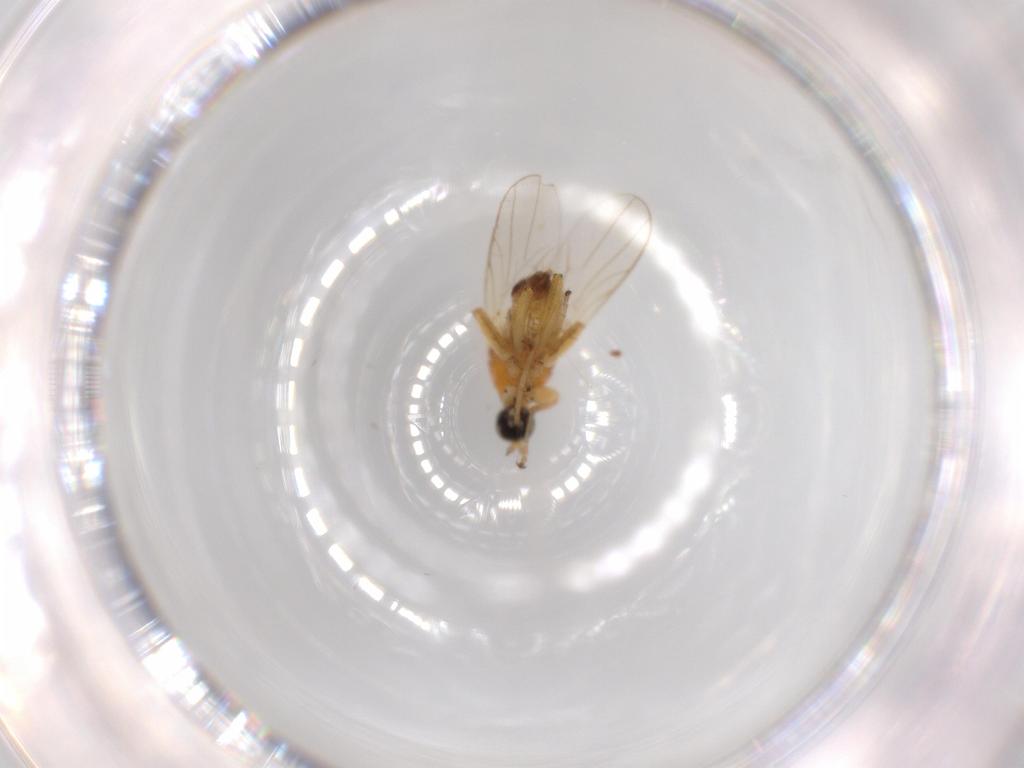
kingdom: Animalia
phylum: Arthropoda
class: Insecta
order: Diptera
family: Hybotidae
